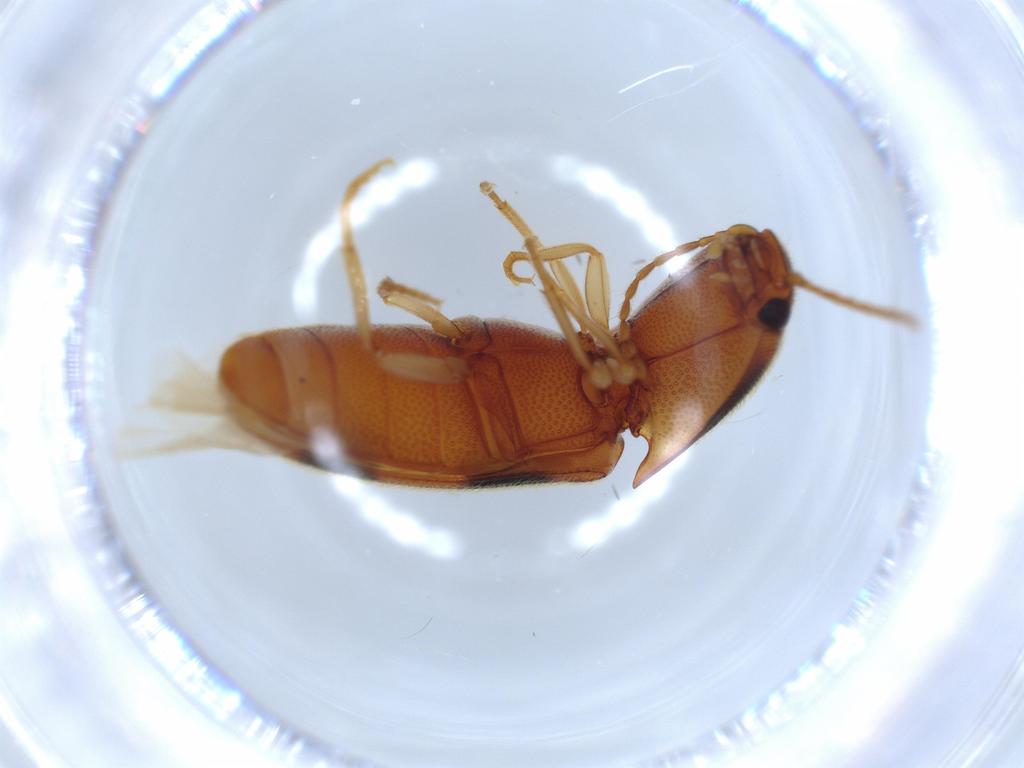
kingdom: Animalia
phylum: Arthropoda
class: Insecta
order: Coleoptera
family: Elateridae
